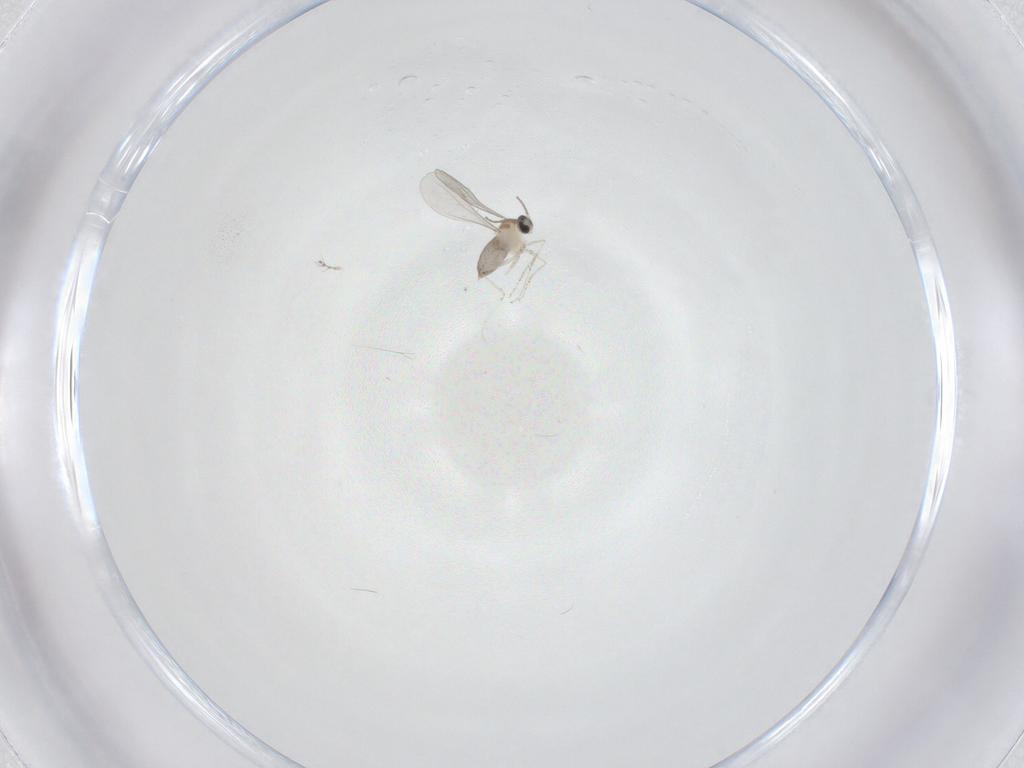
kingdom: Animalia
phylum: Arthropoda
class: Insecta
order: Diptera
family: Chironomidae
